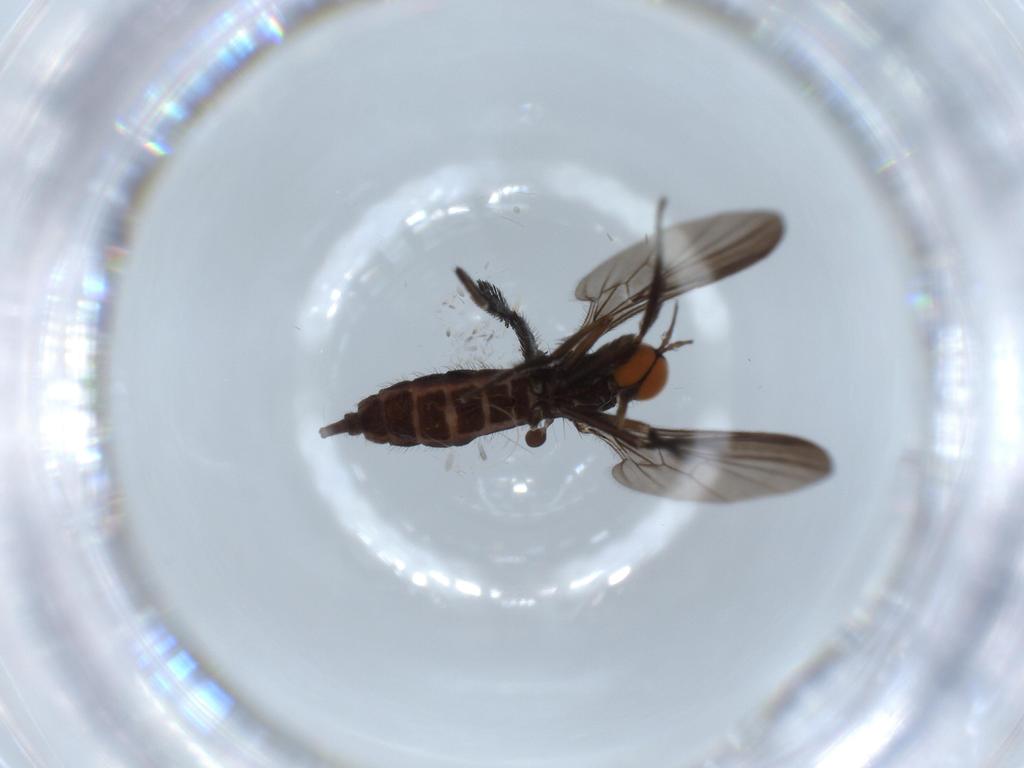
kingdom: Animalia
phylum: Arthropoda
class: Insecta
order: Diptera
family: Empididae
